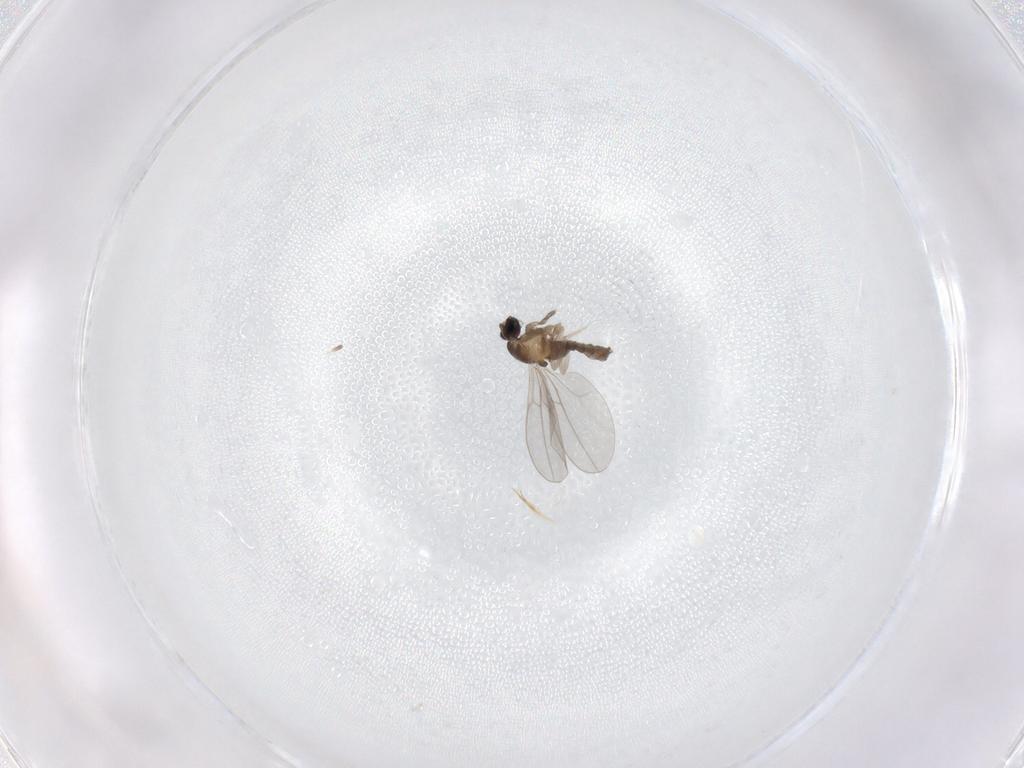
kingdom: Animalia
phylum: Arthropoda
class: Insecta
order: Diptera
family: Cecidomyiidae
